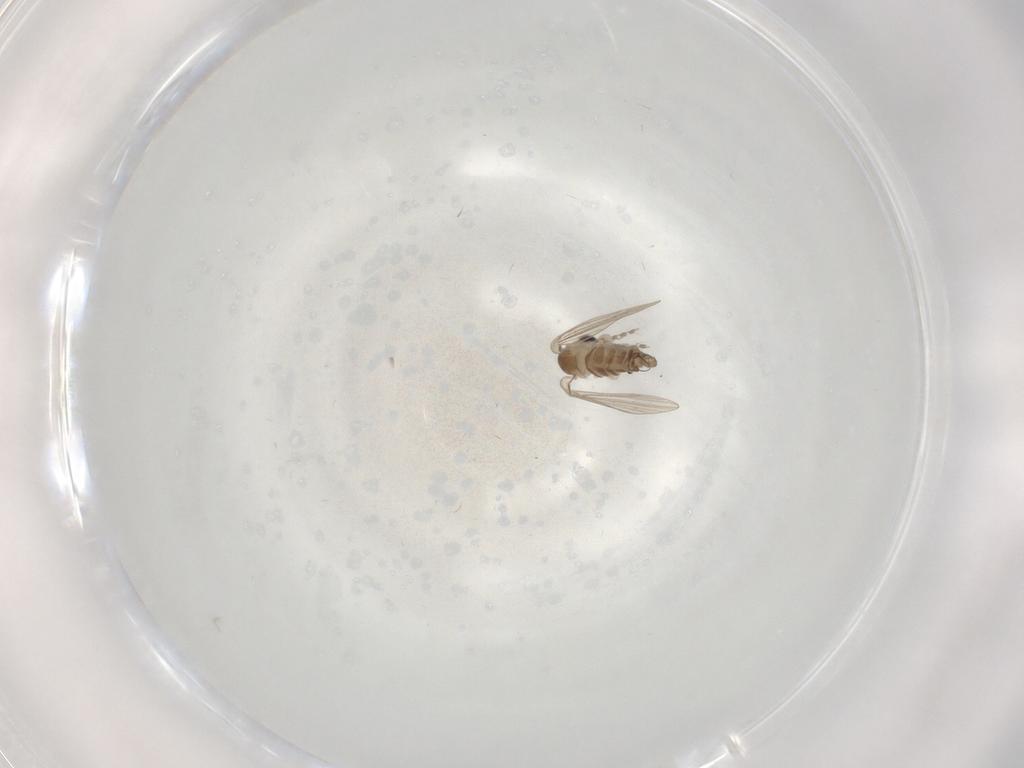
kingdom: Animalia
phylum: Arthropoda
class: Insecta
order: Diptera
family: Cecidomyiidae
